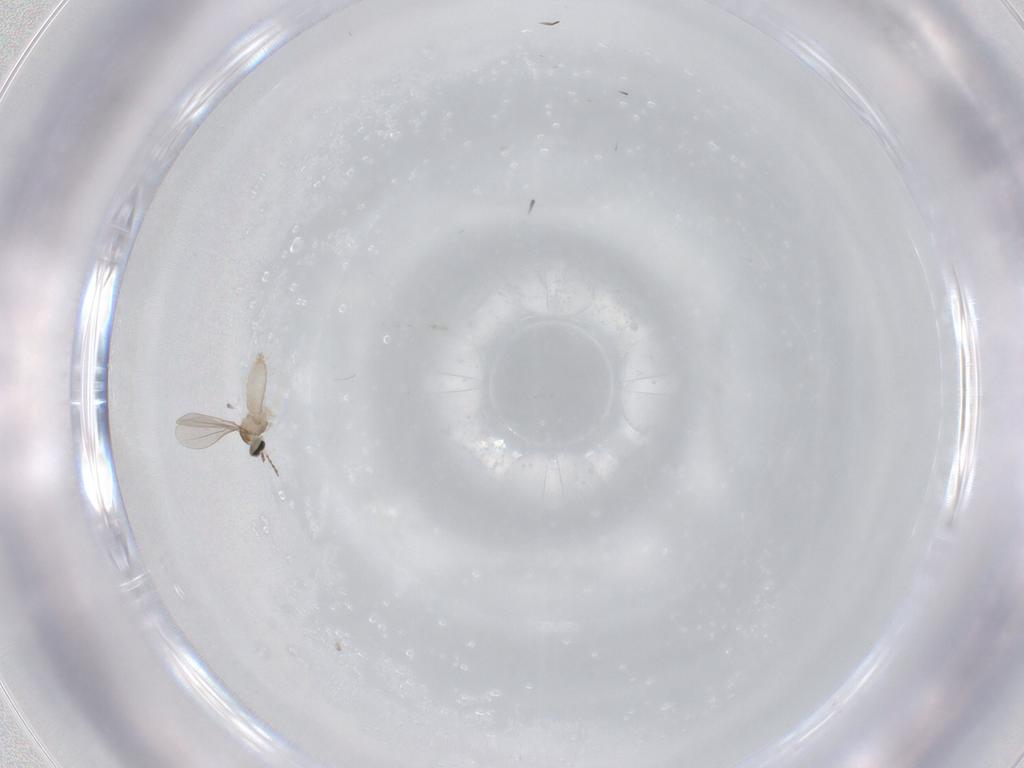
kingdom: Animalia
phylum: Arthropoda
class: Insecta
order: Diptera
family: Cecidomyiidae
